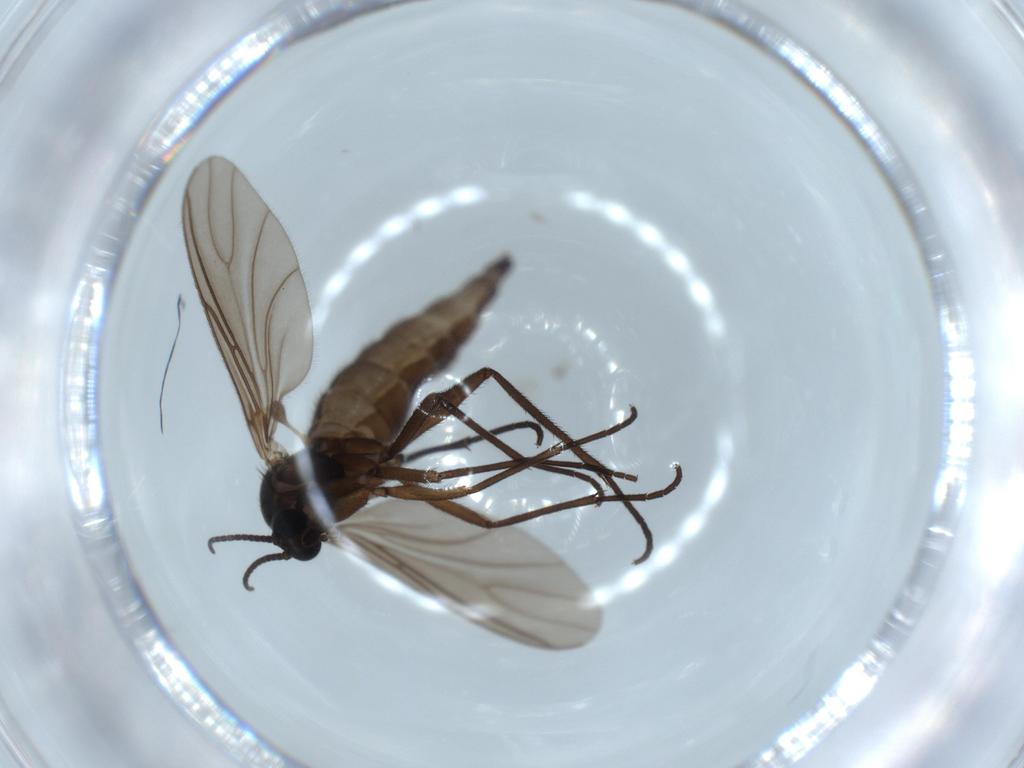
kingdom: Animalia
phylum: Arthropoda
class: Insecta
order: Diptera
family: Sciaridae
